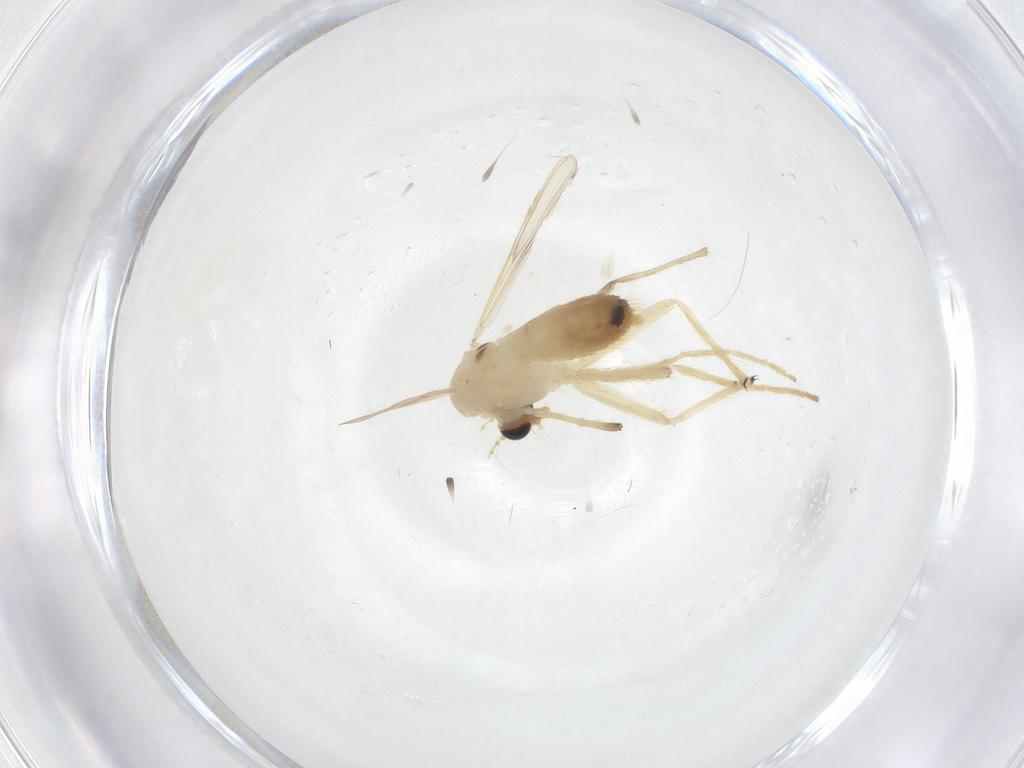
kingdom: Animalia
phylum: Arthropoda
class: Insecta
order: Diptera
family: Chironomidae
